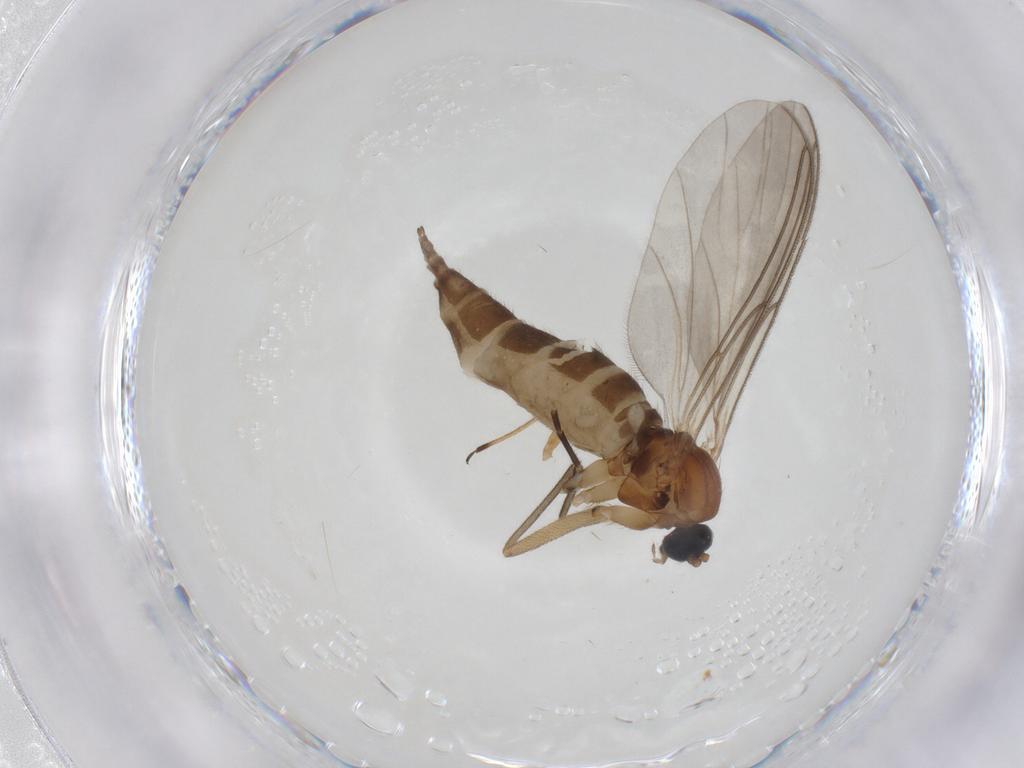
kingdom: Animalia
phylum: Arthropoda
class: Insecta
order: Diptera
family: Sciaridae
